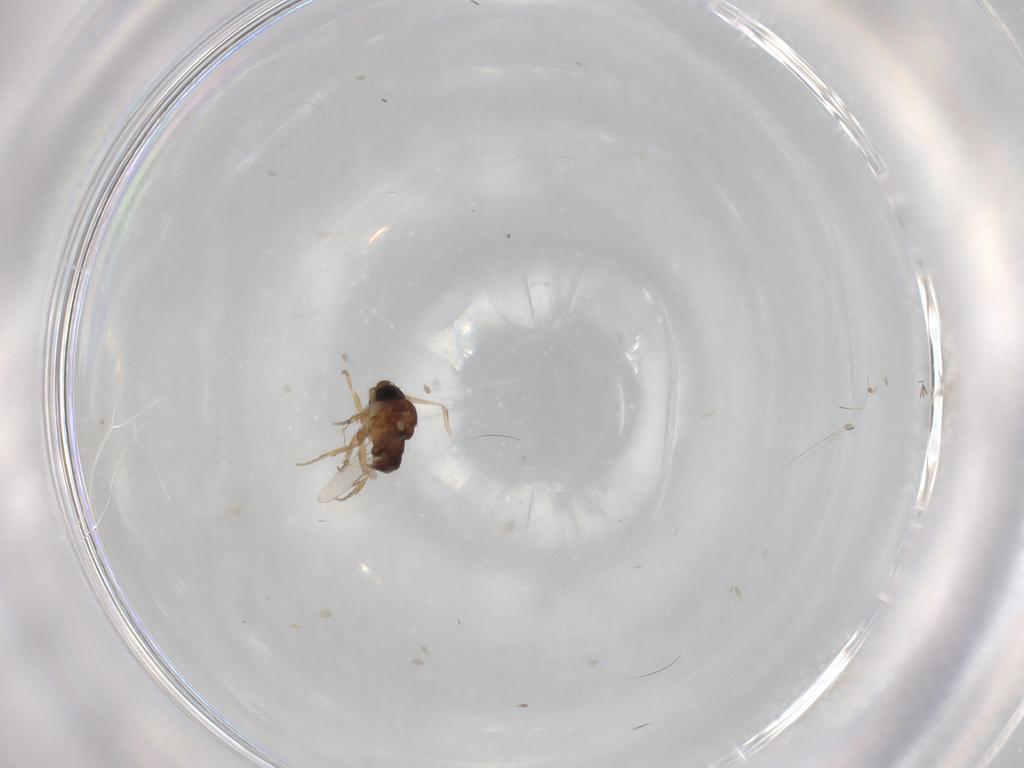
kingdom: Animalia
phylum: Arthropoda
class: Insecta
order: Diptera
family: Phoridae
